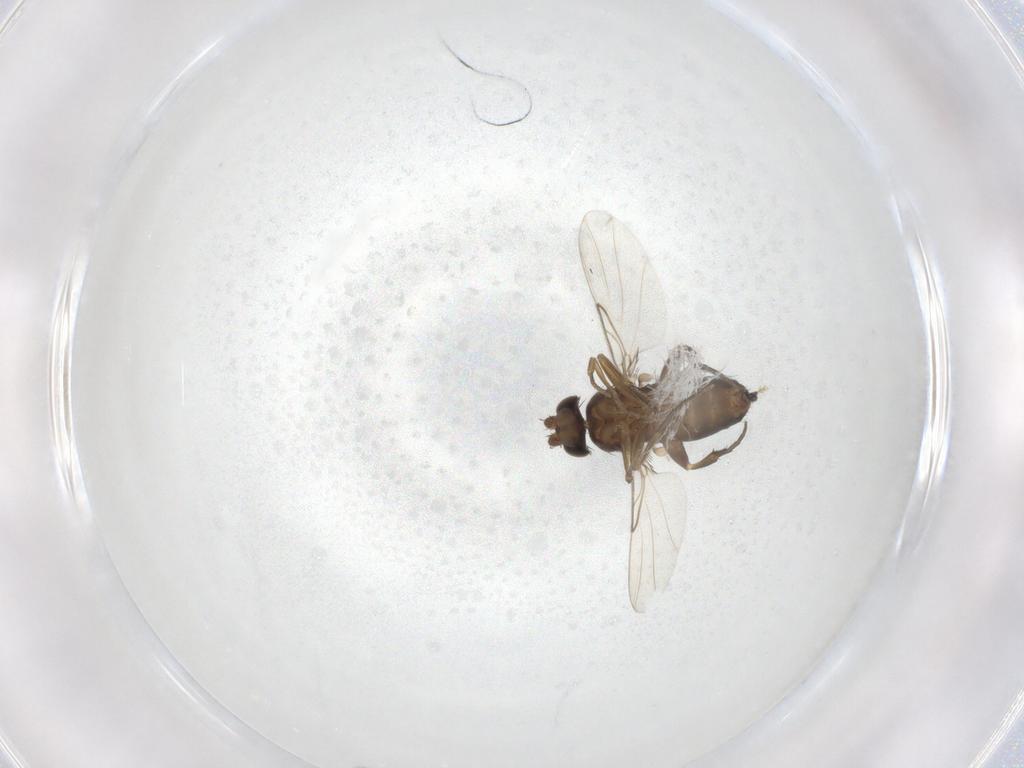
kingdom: Animalia
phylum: Arthropoda
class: Insecta
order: Diptera
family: Phoridae
